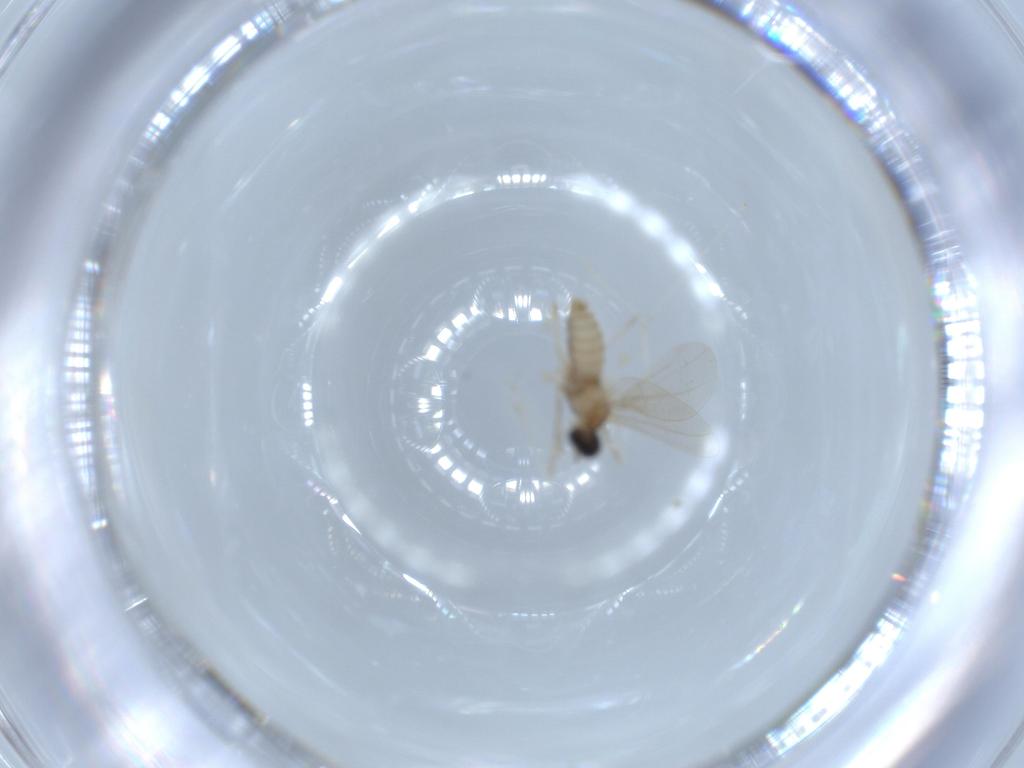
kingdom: Animalia
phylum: Arthropoda
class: Insecta
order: Diptera
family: Cecidomyiidae
